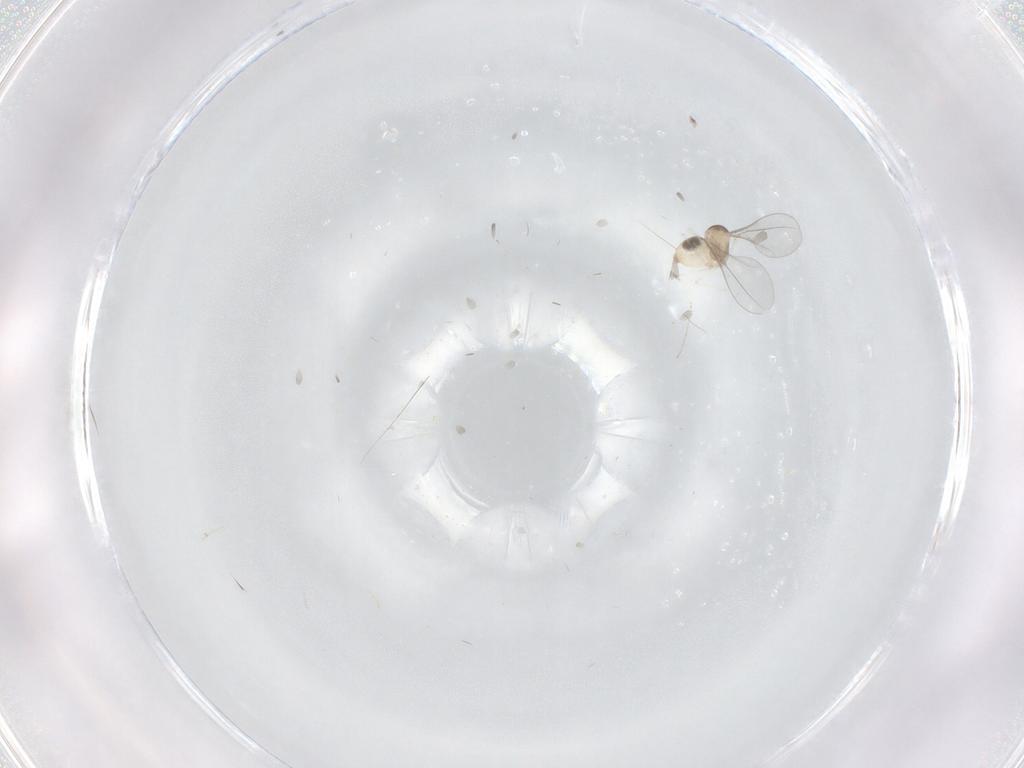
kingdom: Animalia
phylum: Arthropoda
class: Insecta
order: Diptera
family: Cecidomyiidae
